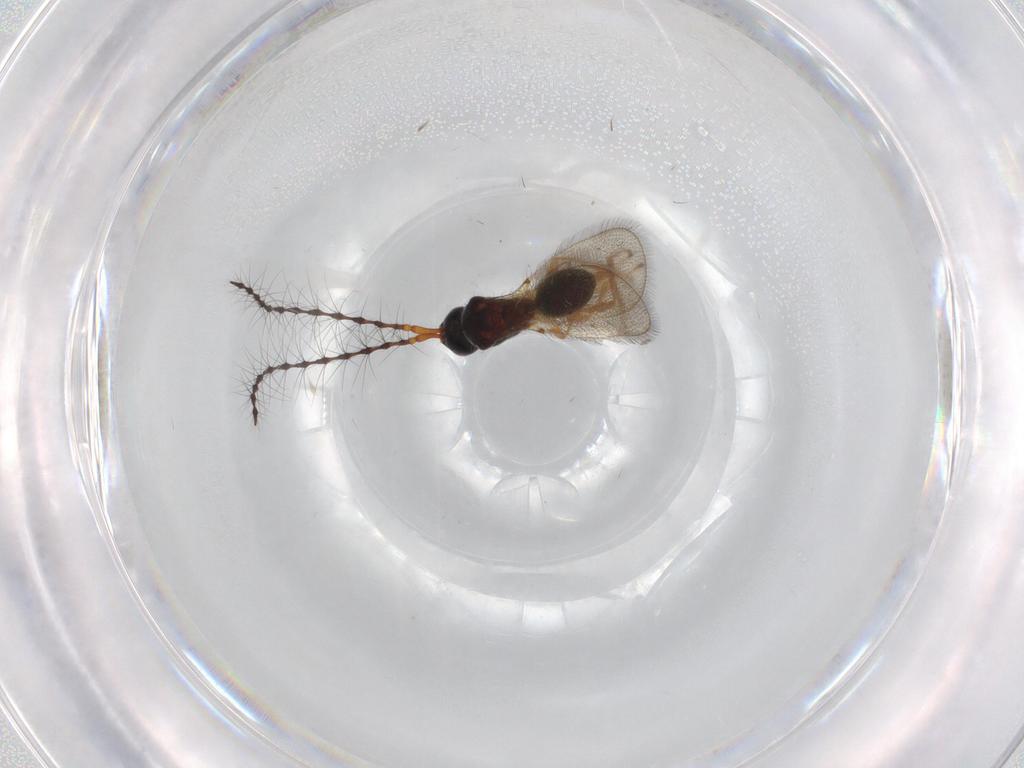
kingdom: Animalia
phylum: Arthropoda
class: Insecta
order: Hymenoptera
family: Diapriidae
